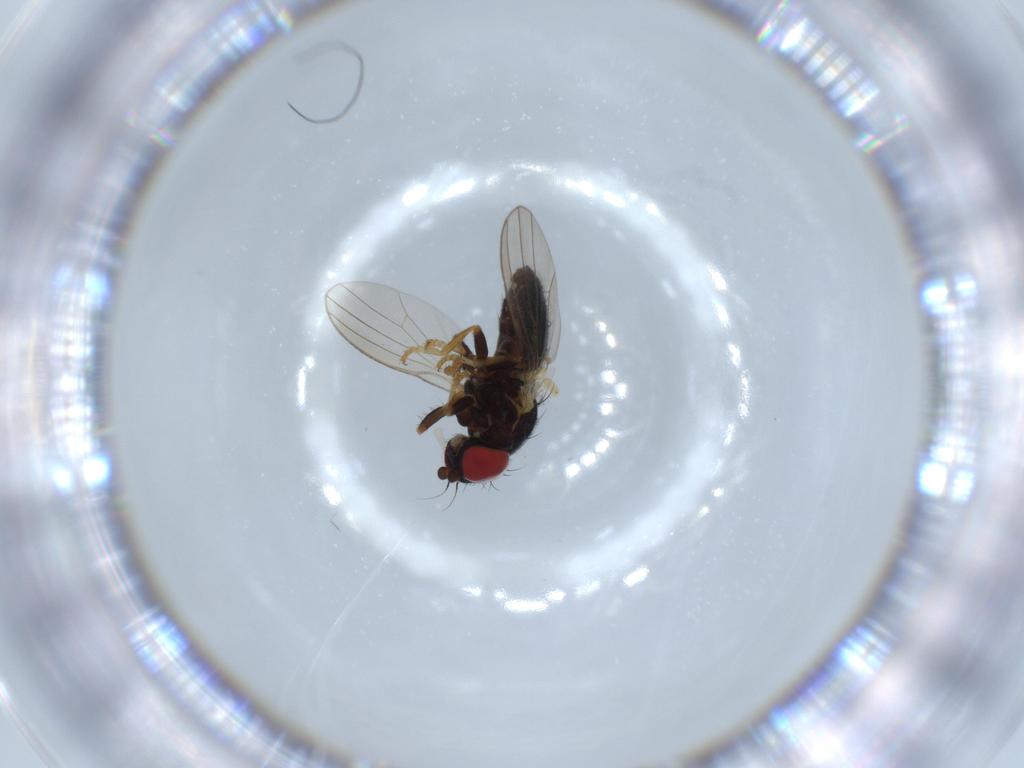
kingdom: Animalia
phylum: Arthropoda
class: Insecta
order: Diptera
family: Chamaemyiidae
